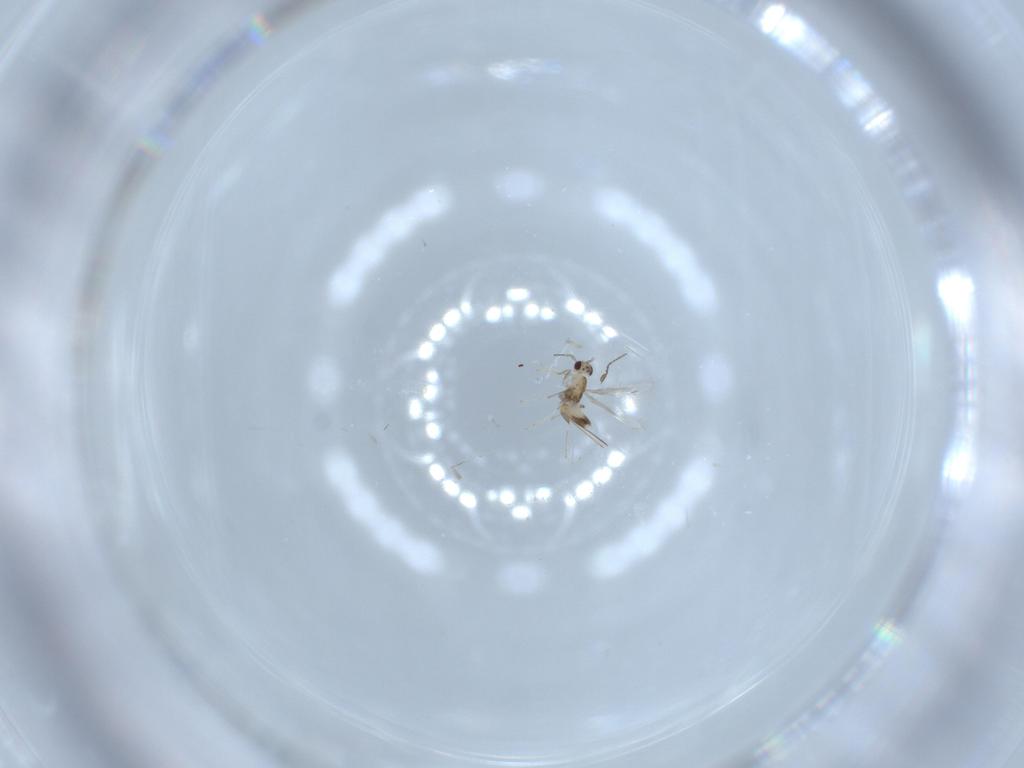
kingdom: Animalia
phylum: Arthropoda
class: Insecta
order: Hymenoptera
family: Mymaridae
